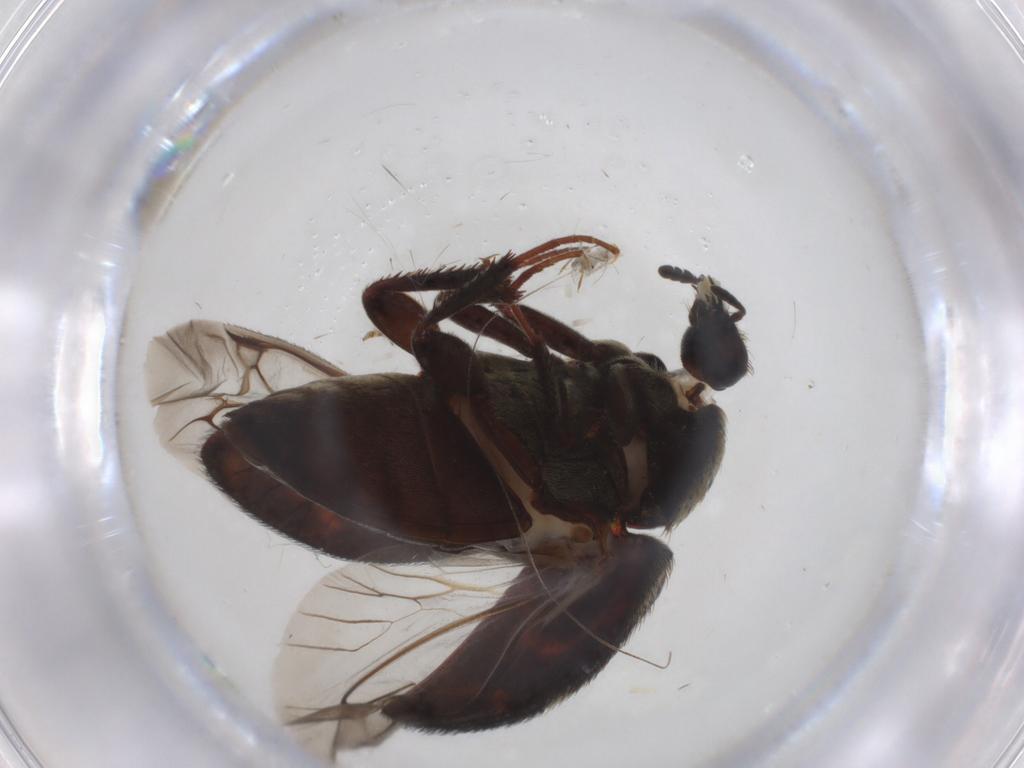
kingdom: Animalia
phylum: Arthropoda
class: Insecta
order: Coleoptera
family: Dermestidae
